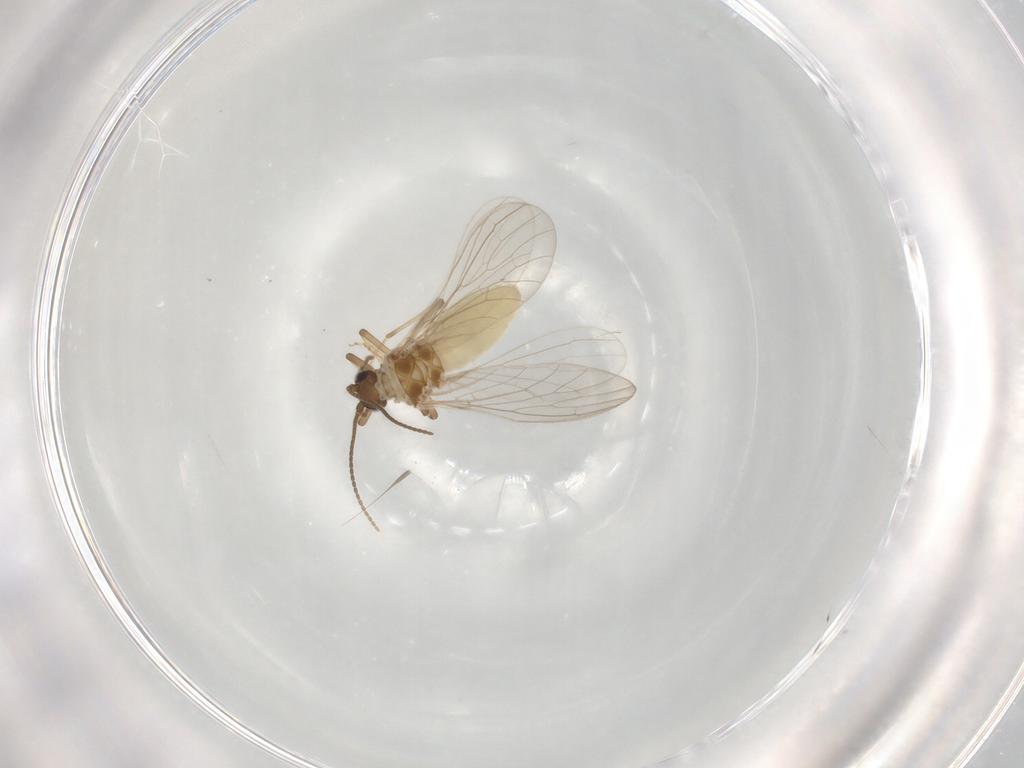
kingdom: Animalia
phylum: Arthropoda
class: Insecta
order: Neuroptera
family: Coniopterygidae
